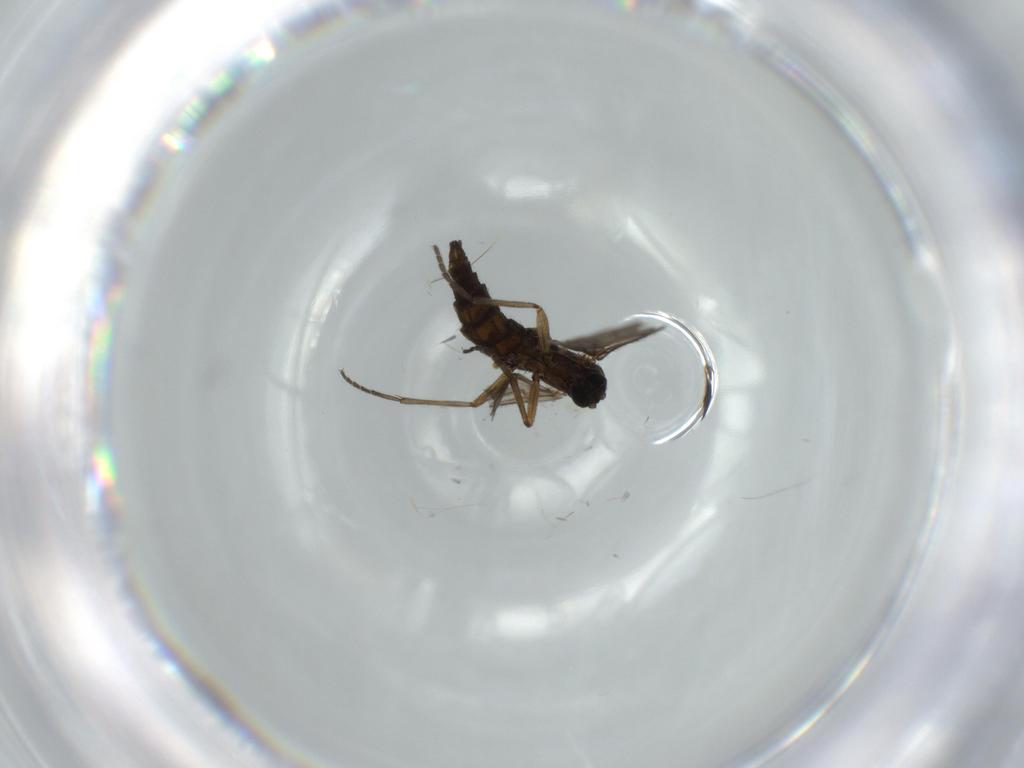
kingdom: Animalia
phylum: Arthropoda
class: Insecta
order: Diptera
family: Sciaridae
